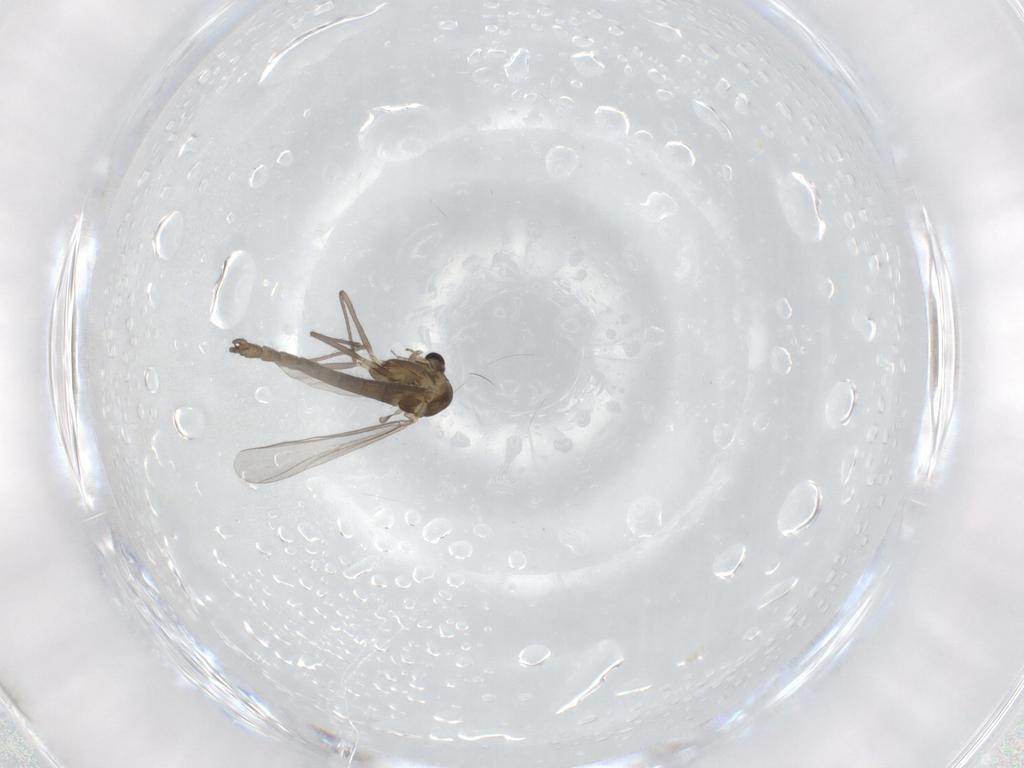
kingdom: Animalia
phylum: Arthropoda
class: Insecta
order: Diptera
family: Chironomidae
